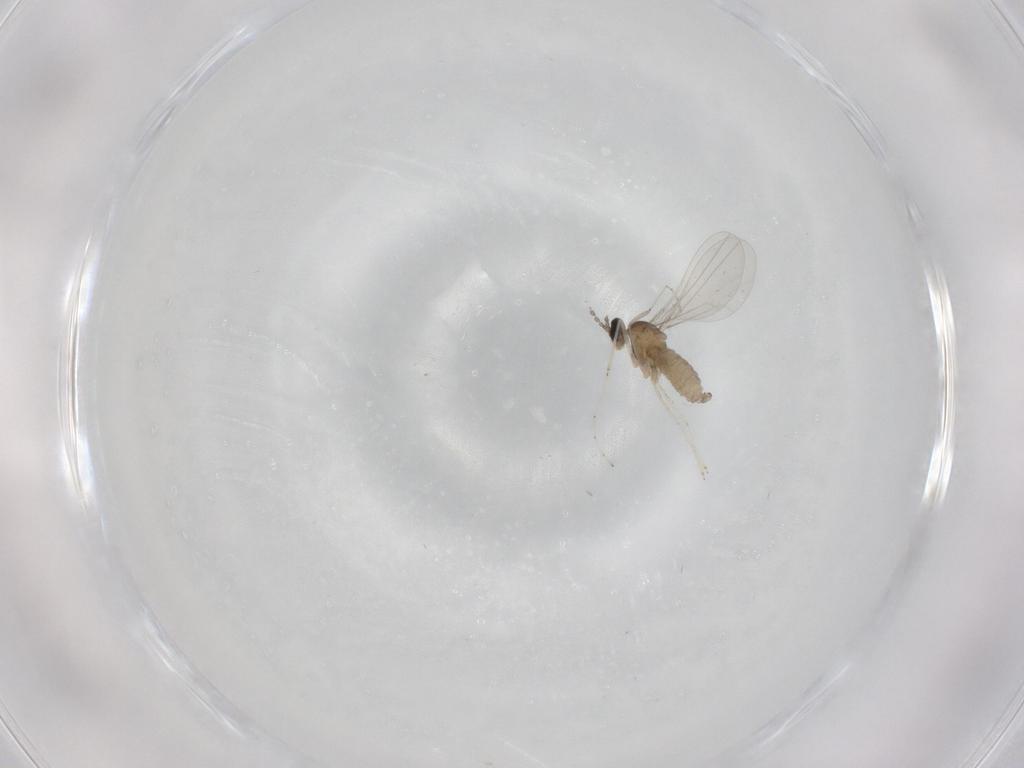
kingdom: Animalia
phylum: Arthropoda
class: Insecta
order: Diptera
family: Cecidomyiidae
